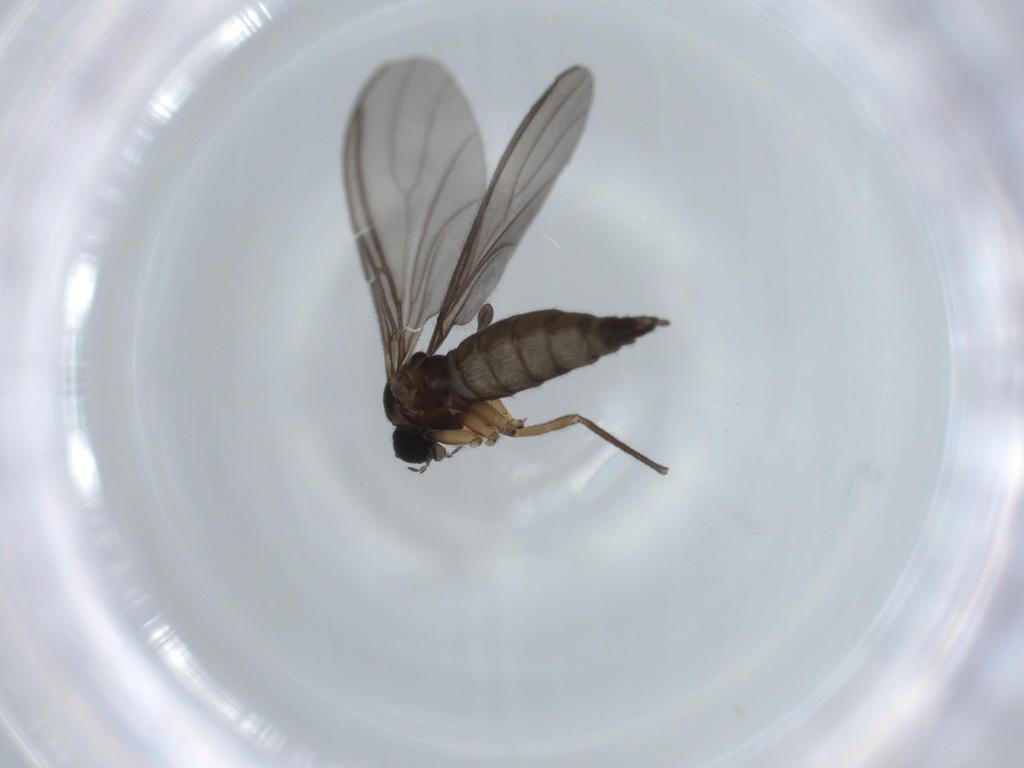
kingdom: Animalia
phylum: Arthropoda
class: Insecta
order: Diptera
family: Sciaridae
